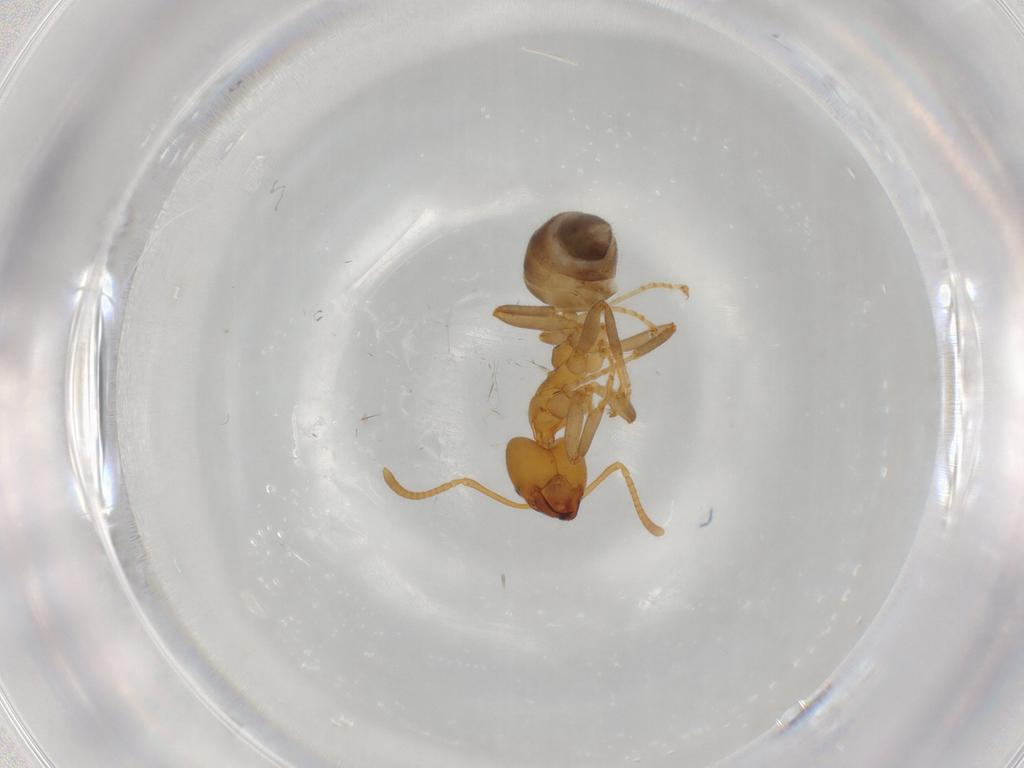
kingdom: Animalia
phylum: Arthropoda
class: Insecta
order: Hymenoptera
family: Formicidae
